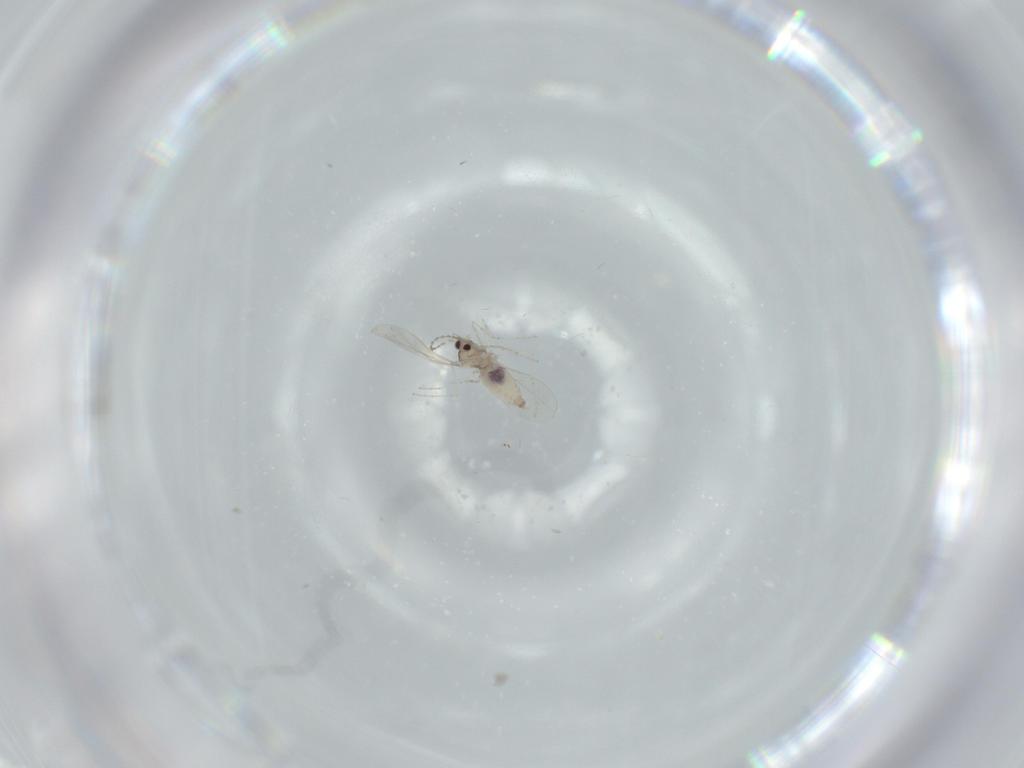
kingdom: Animalia
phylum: Arthropoda
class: Insecta
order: Diptera
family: Cecidomyiidae
